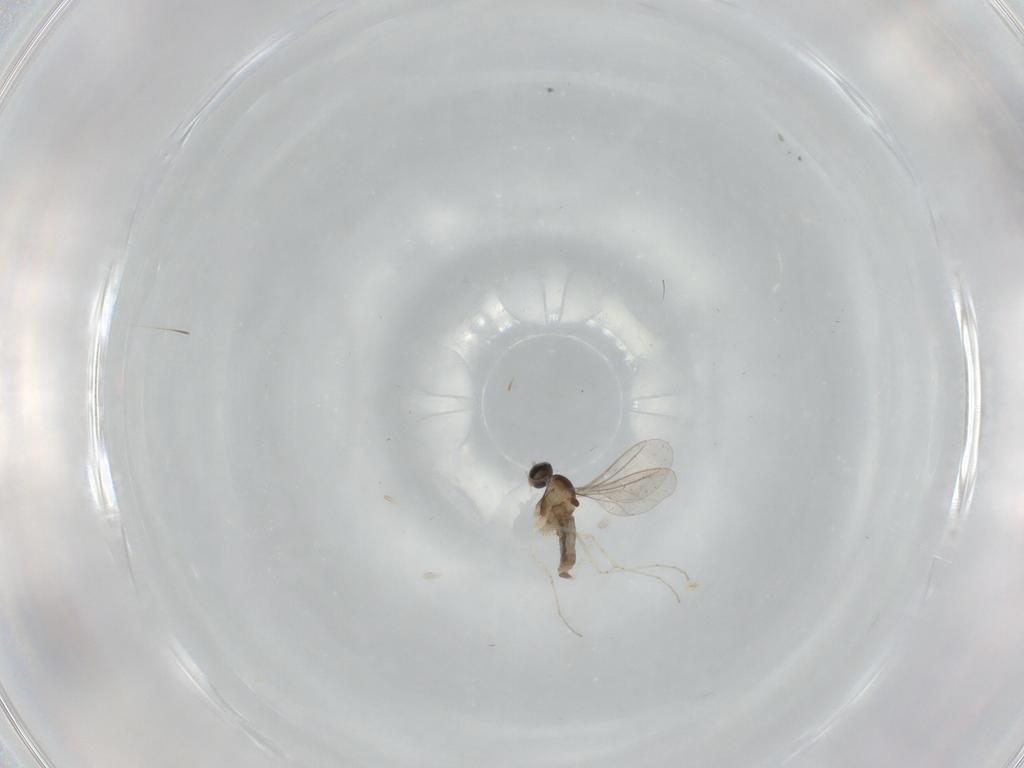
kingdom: Animalia
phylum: Arthropoda
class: Insecta
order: Diptera
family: Cecidomyiidae
